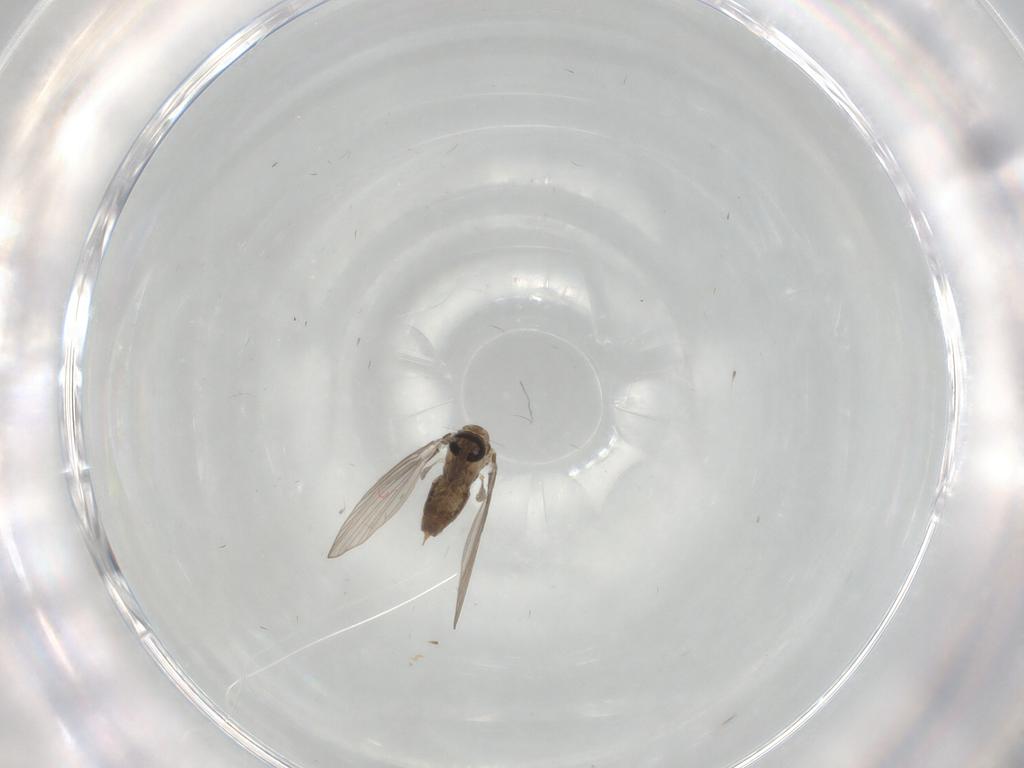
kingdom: Animalia
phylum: Arthropoda
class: Insecta
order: Diptera
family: Cecidomyiidae
